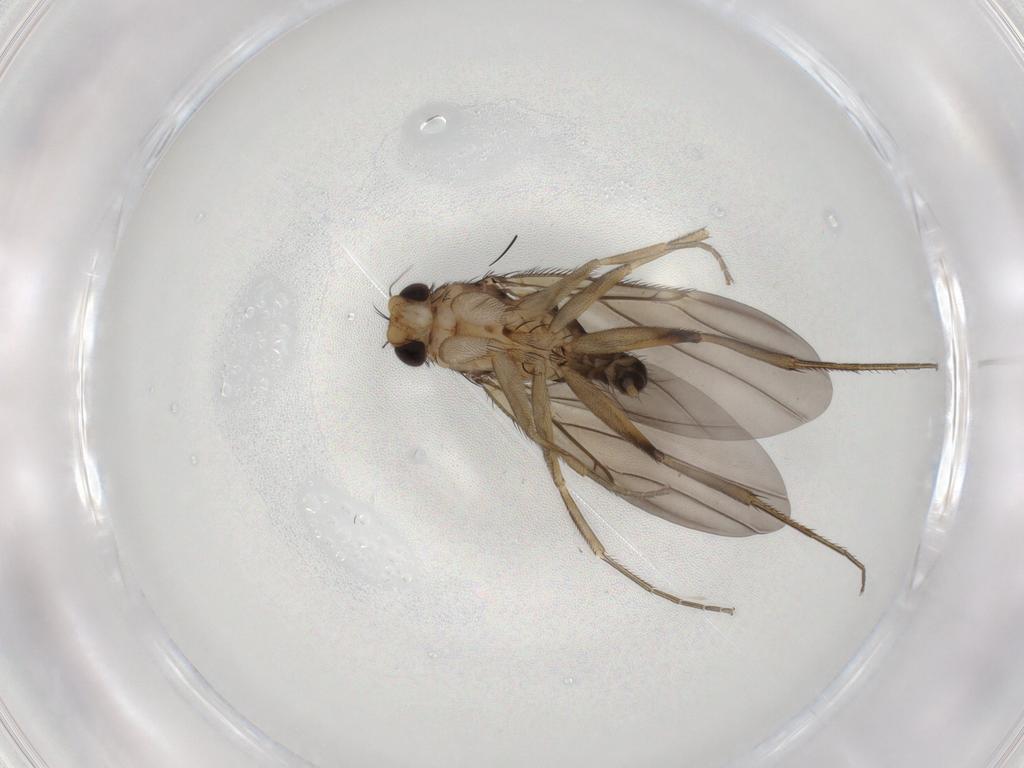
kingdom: Animalia
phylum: Arthropoda
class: Insecta
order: Diptera
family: Phoridae
